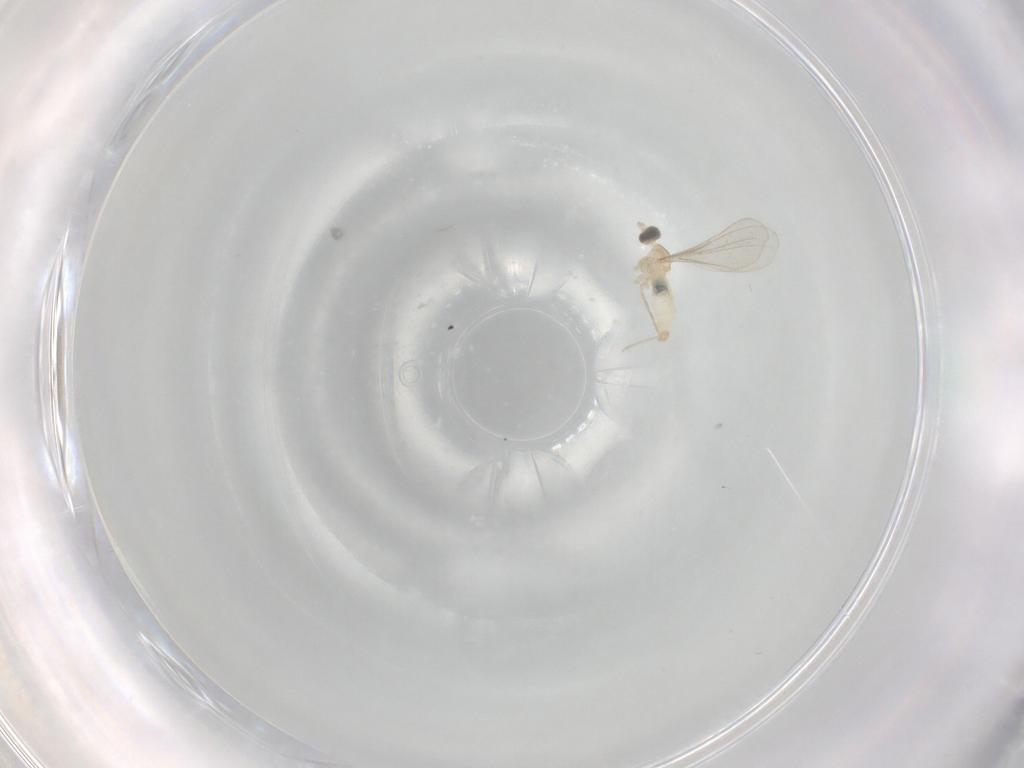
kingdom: Animalia
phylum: Arthropoda
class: Insecta
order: Diptera
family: Cecidomyiidae
